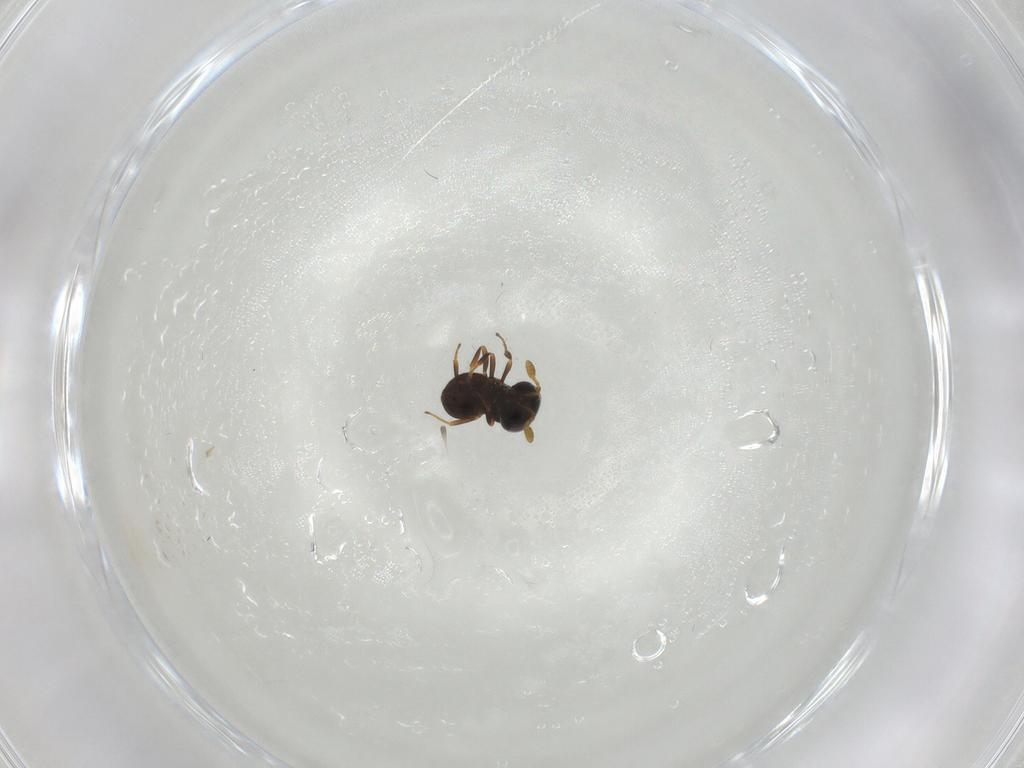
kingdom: Animalia
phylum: Arthropoda
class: Insecta
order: Hymenoptera
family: Scelionidae
